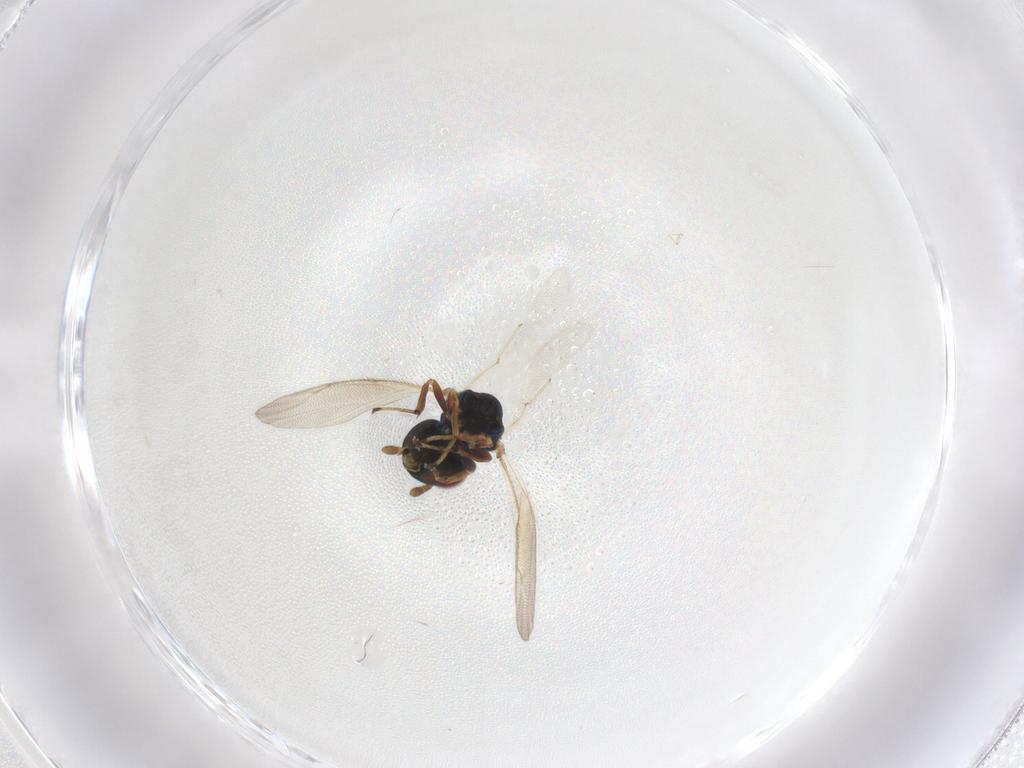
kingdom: Animalia
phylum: Arthropoda
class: Insecta
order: Hymenoptera
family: Pteromalidae
